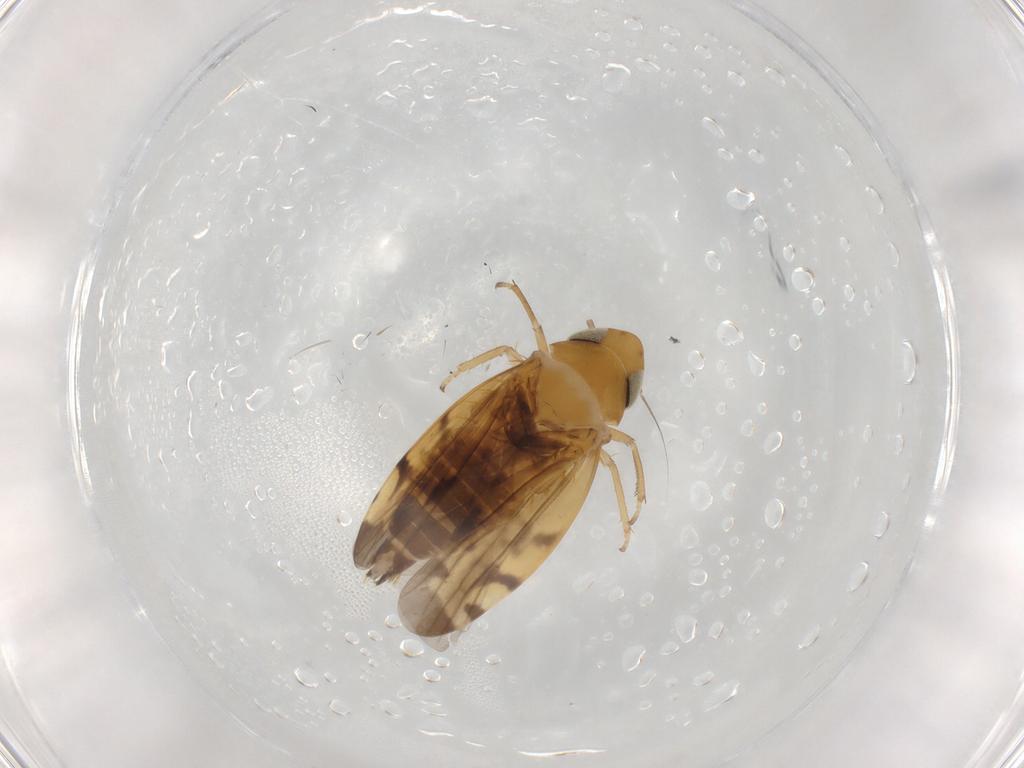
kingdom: Animalia
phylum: Arthropoda
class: Insecta
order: Hemiptera
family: Cicadellidae
